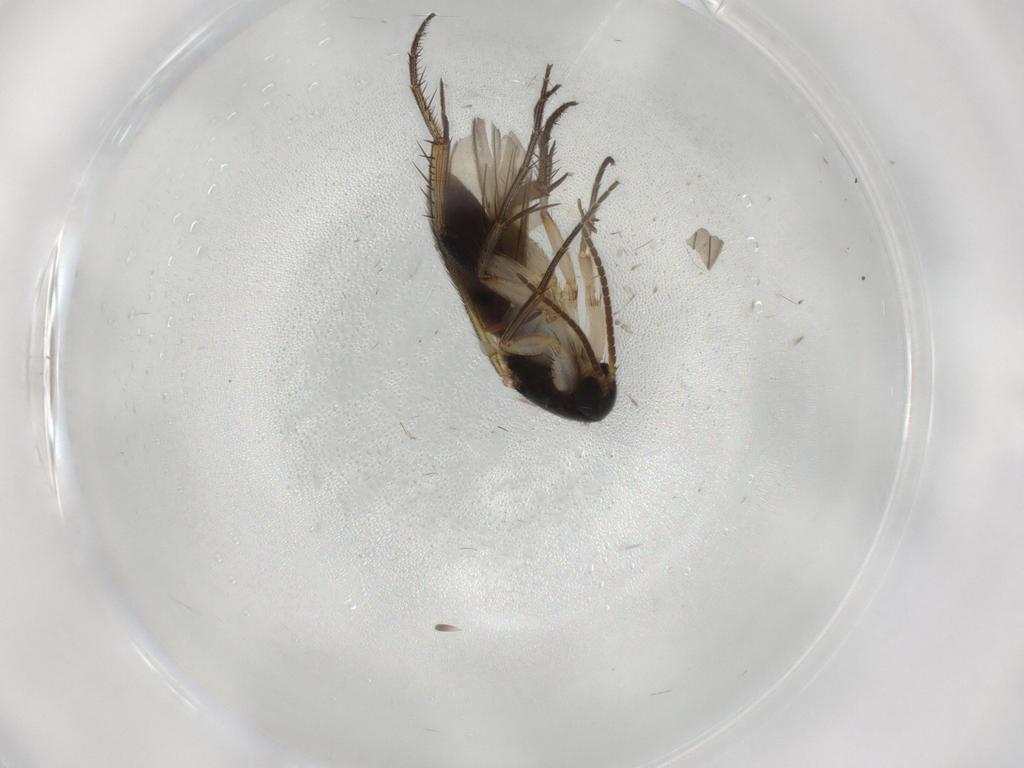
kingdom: Animalia
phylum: Arthropoda
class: Insecta
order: Diptera
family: Cecidomyiidae
